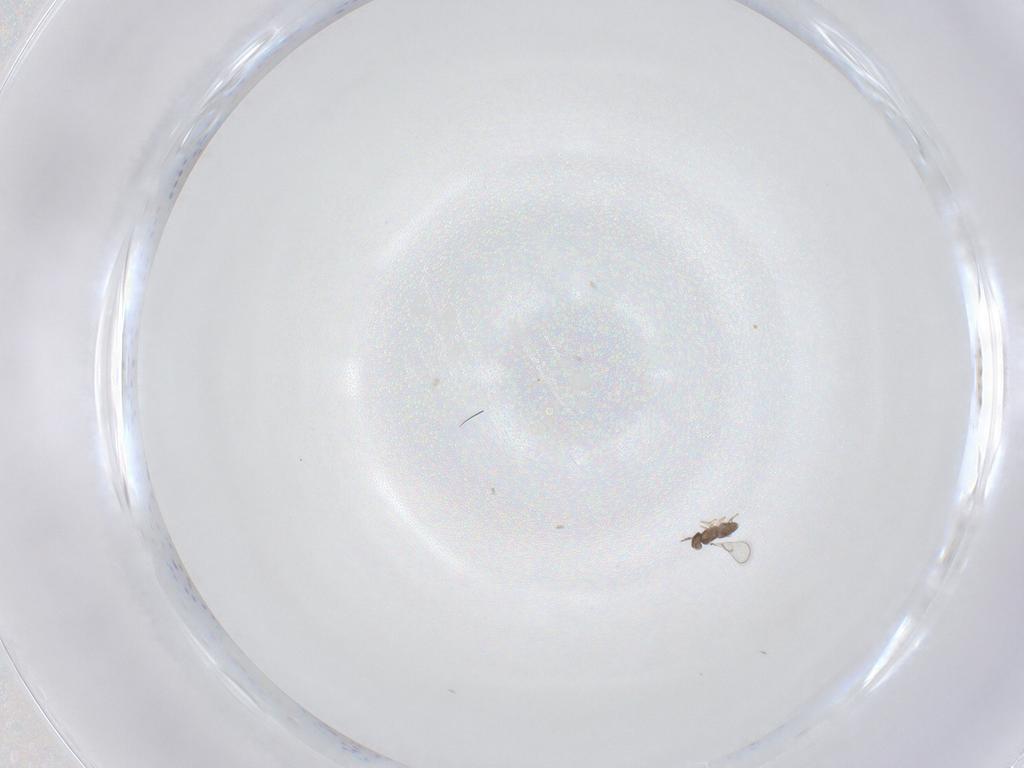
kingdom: Animalia
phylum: Arthropoda
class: Insecta
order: Hymenoptera
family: Trichogrammatidae
